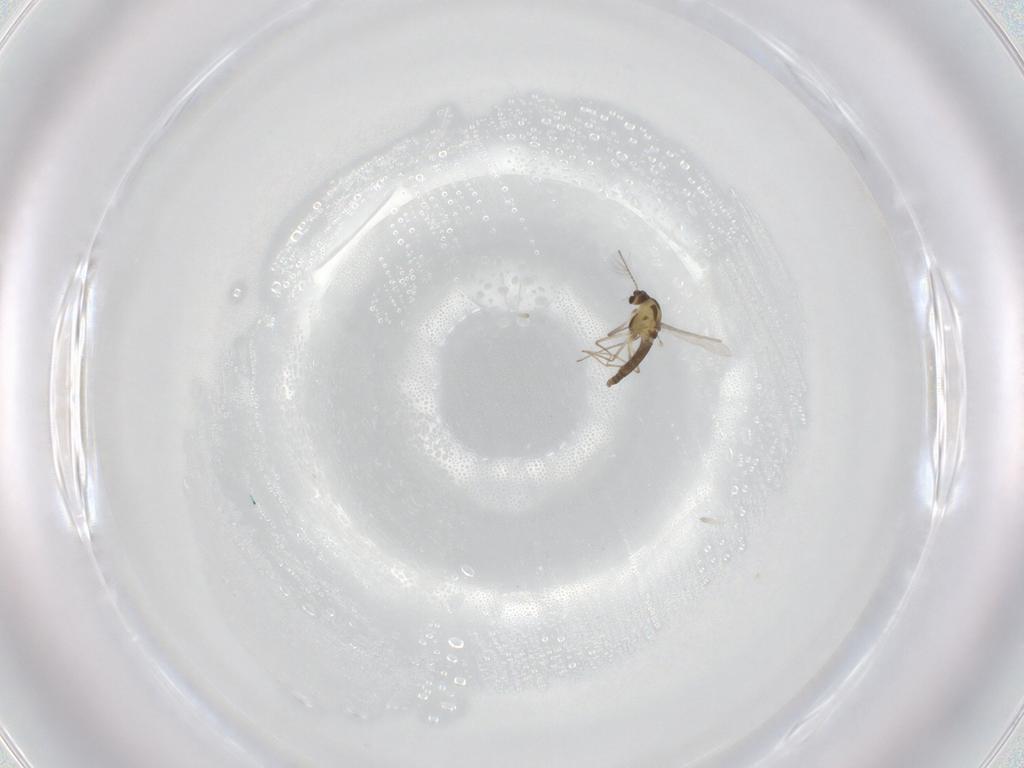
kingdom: Animalia
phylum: Arthropoda
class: Insecta
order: Diptera
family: Chironomidae
